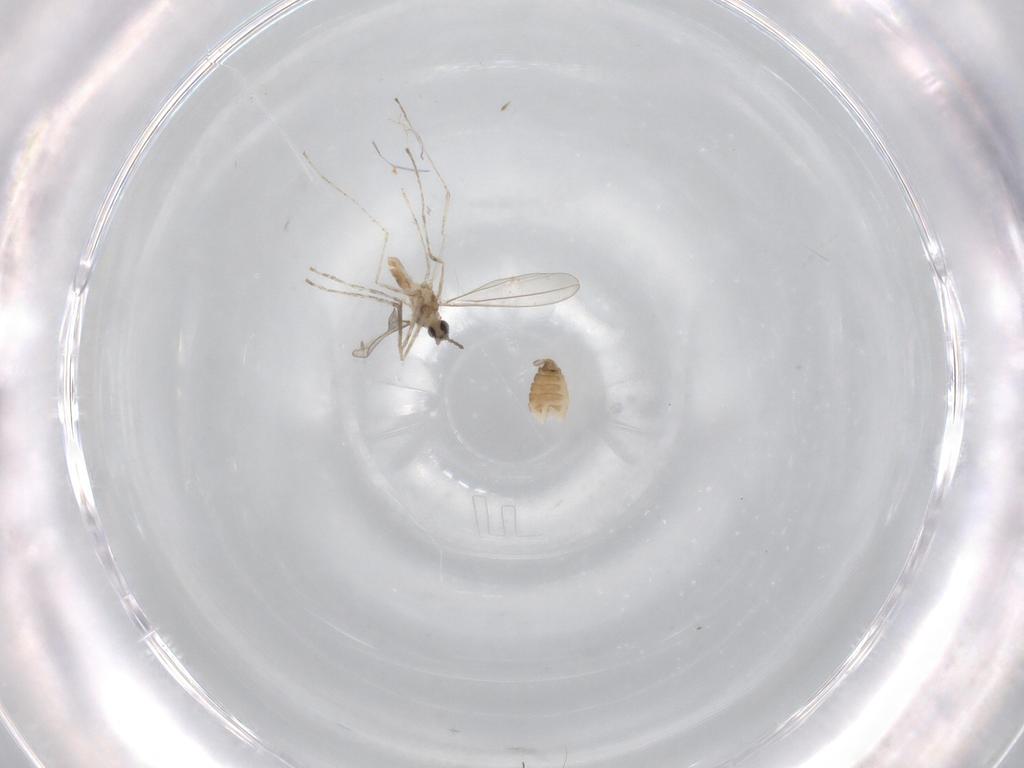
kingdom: Animalia
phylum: Arthropoda
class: Insecta
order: Diptera
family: Cecidomyiidae
